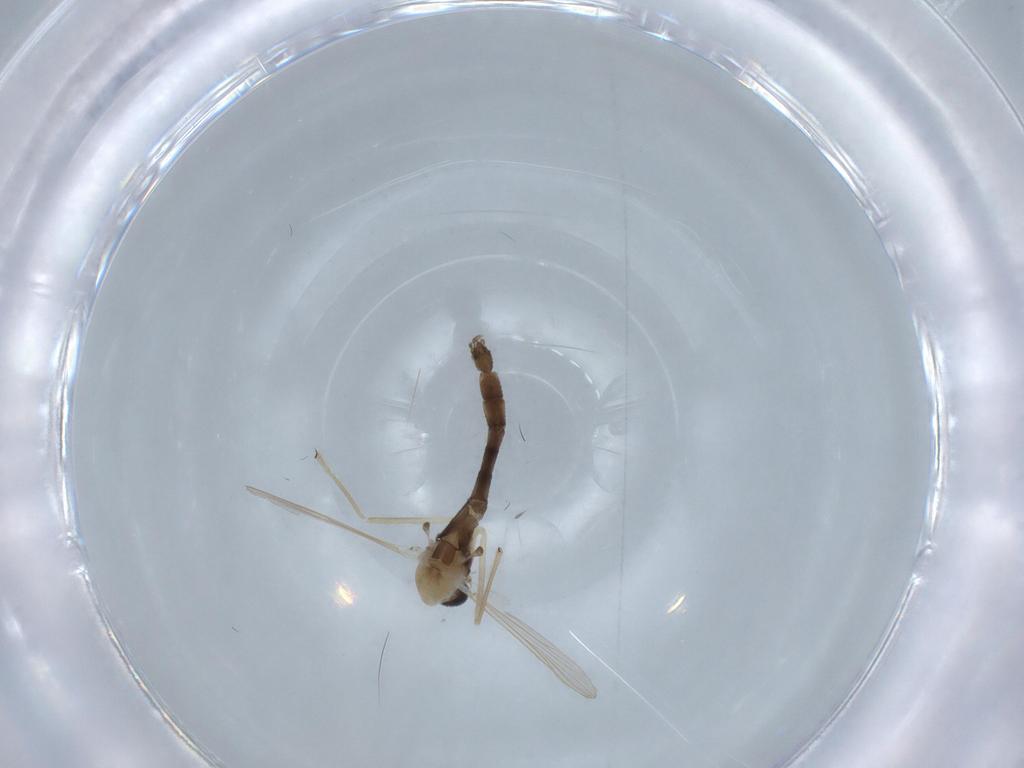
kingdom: Animalia
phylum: Arthropoda
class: Insecta
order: Diptera
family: Chironomidae
